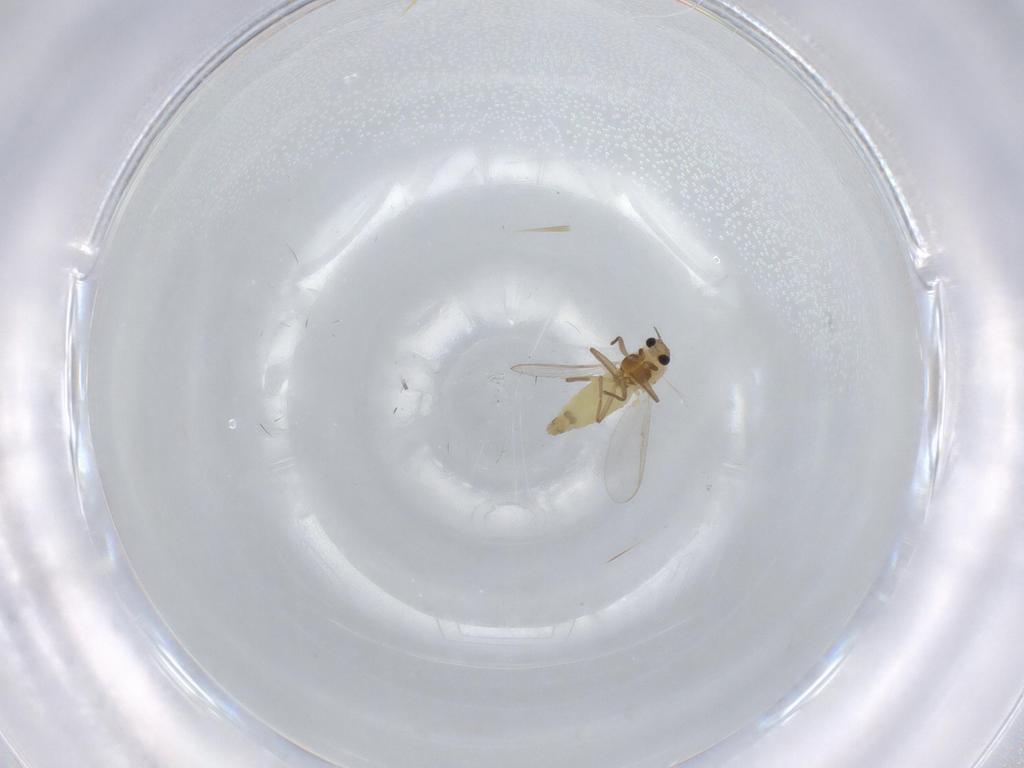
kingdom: Animalia
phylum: Arthropoda
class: Insecta
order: Diptera
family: Chironomidae
